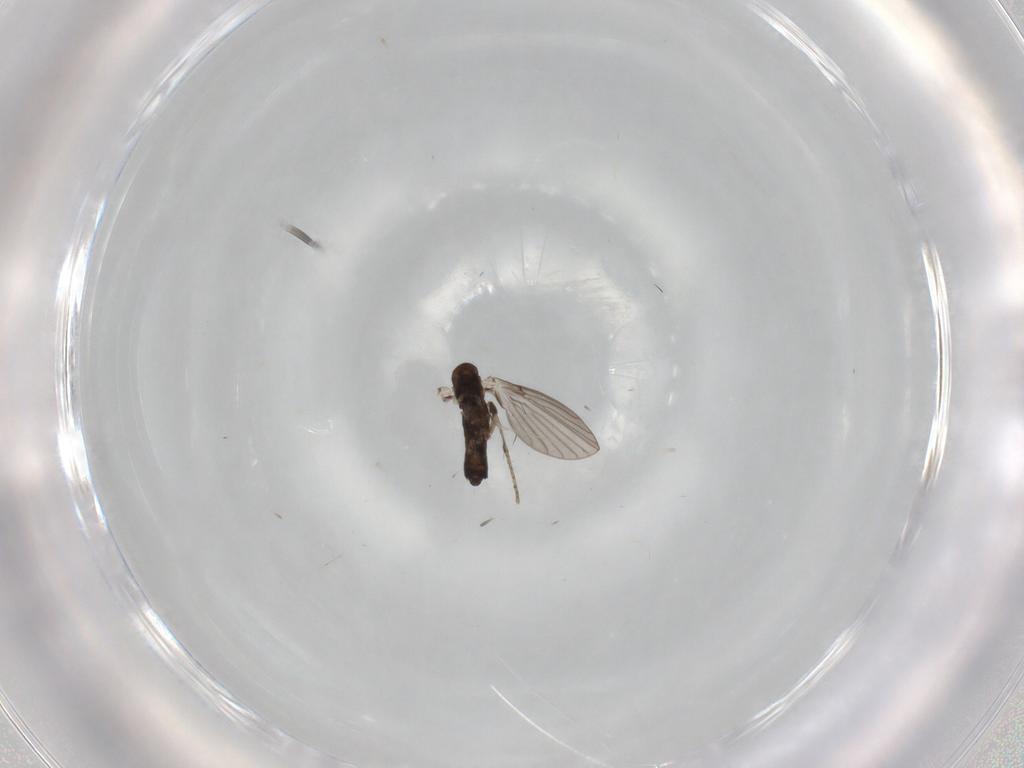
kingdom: Animalia
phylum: Arthropoda
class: Insecta
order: Diptera
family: Psychodidae
